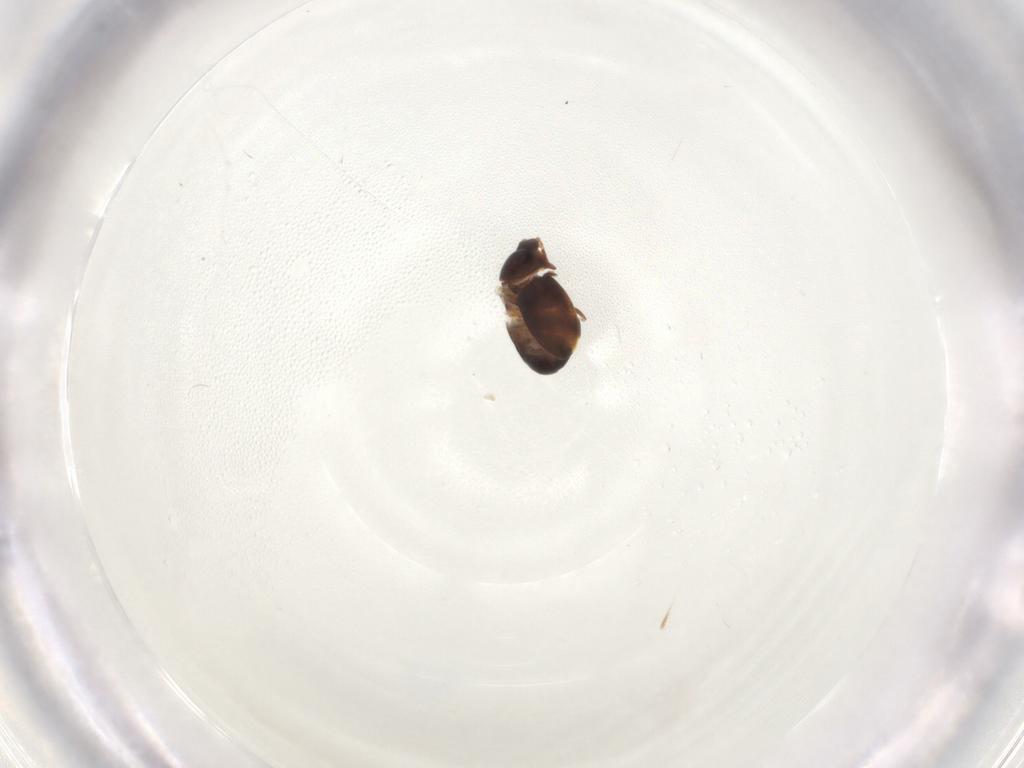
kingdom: Animalia
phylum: Arthropoda
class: Insecta
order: Coleoptera
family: Corylophidae
